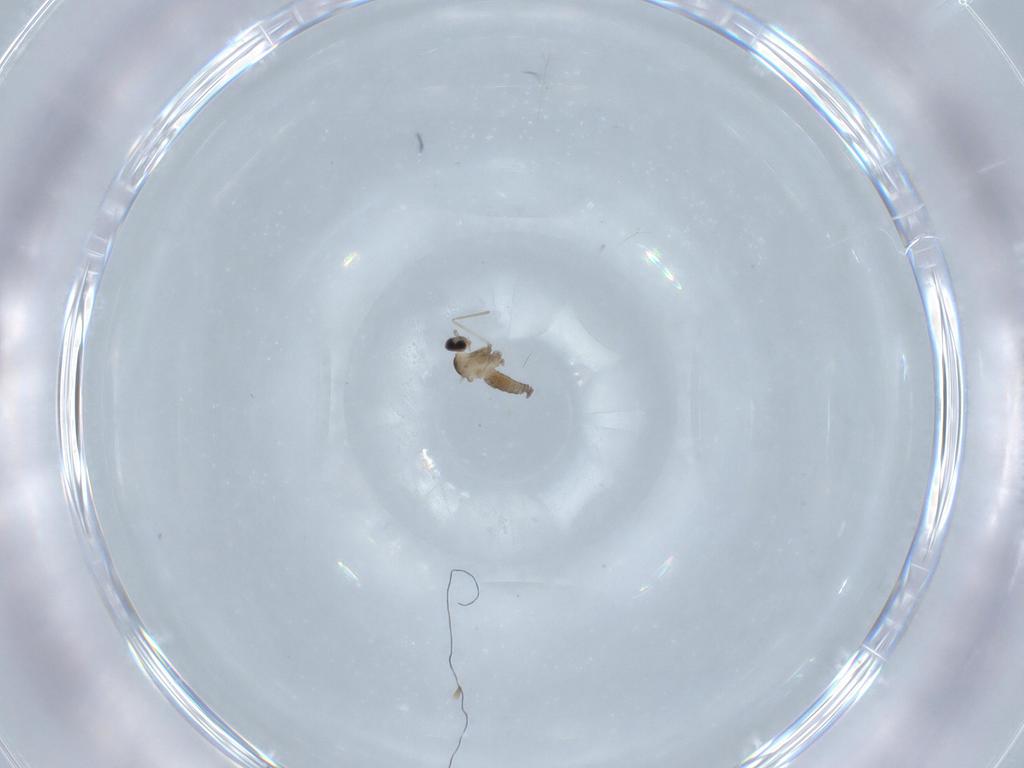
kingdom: Animalia
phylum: Arthropoda
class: Insecta
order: Diptera
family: Cecidomyiidae
